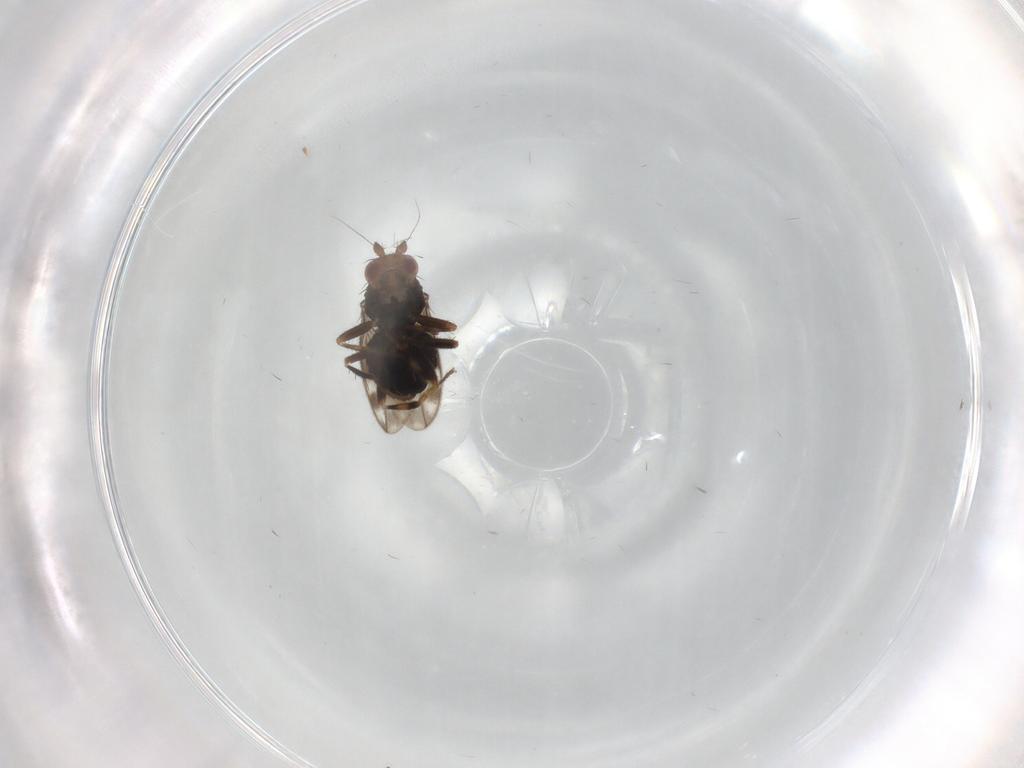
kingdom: Animalia
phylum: Arthropoda
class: Insecta
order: Diptera
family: Sphaeroceridae
